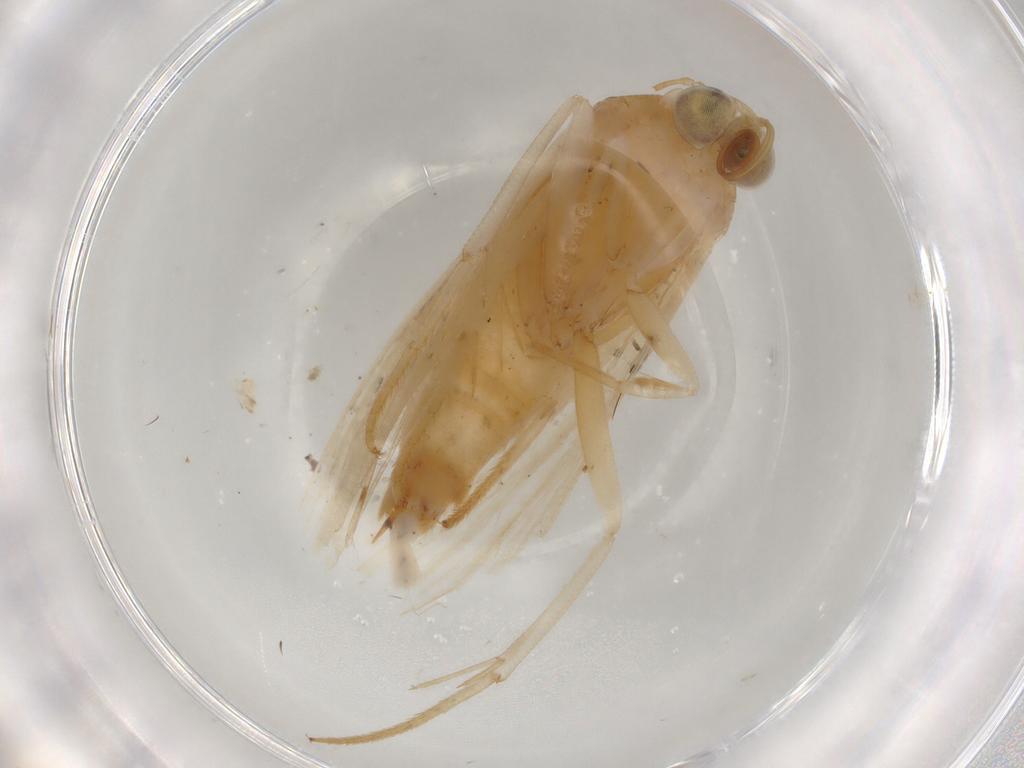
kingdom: Animalia
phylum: Arthropoda
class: Insecta
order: Lepidoptera
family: Noctuidae
